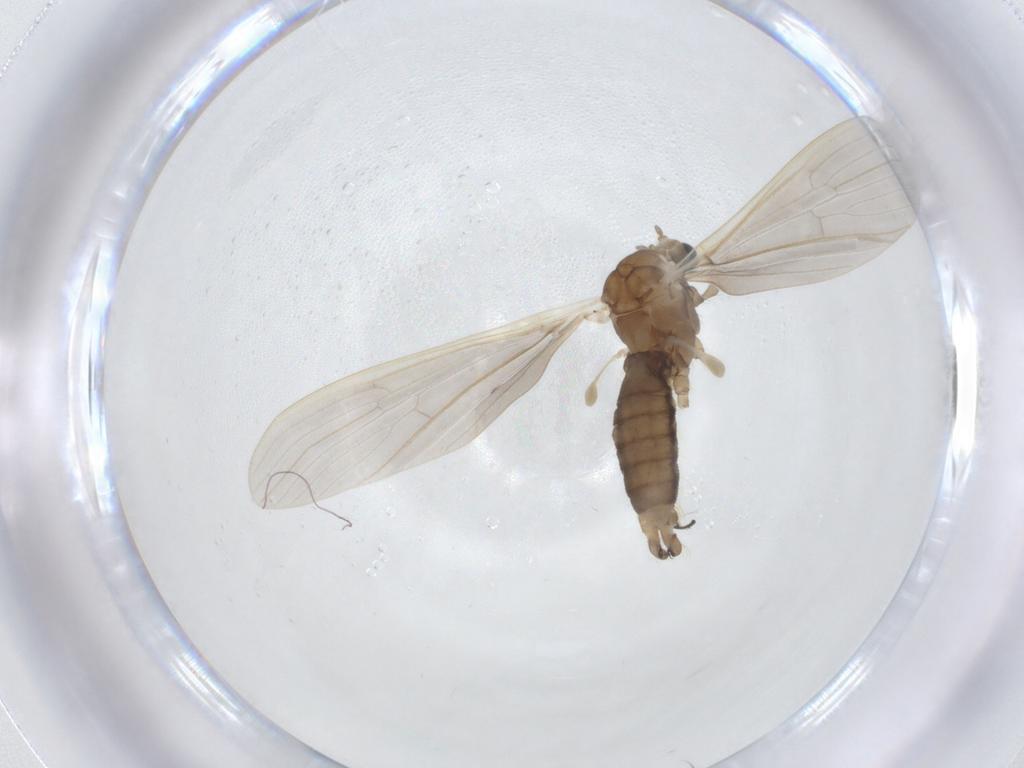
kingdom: Animalia
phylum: Arthropoda
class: Insecta
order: Diptera
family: Limoniidae
